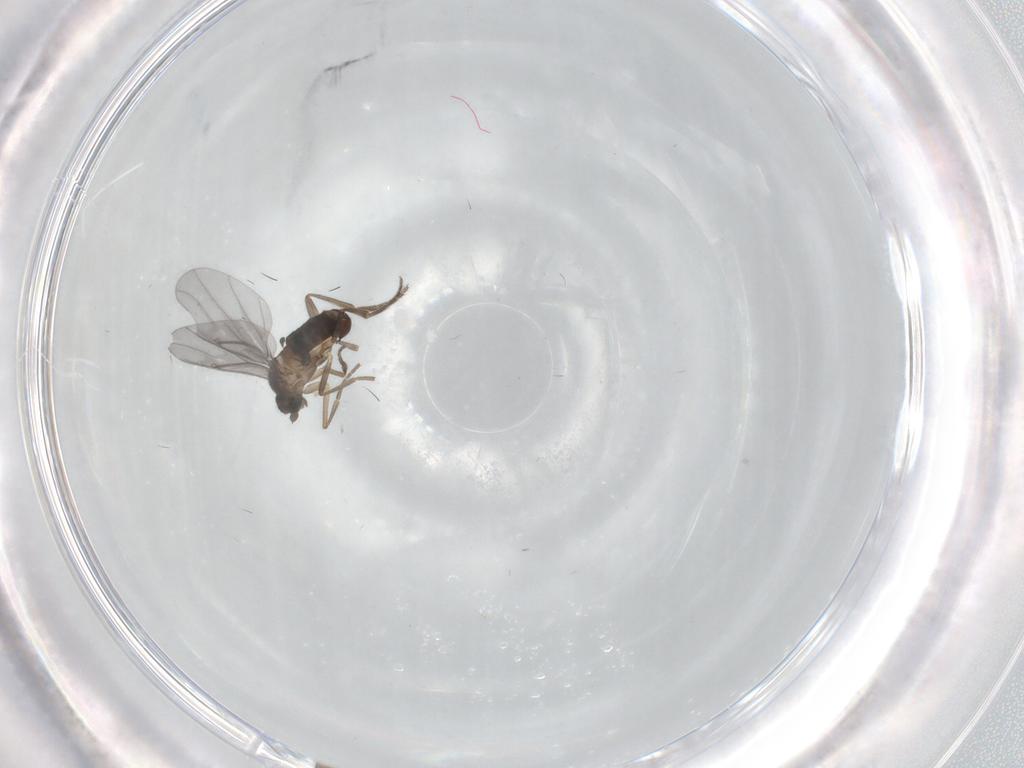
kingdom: Animalia
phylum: Arthropoda
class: Insecta
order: Diptera
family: Phoridae
